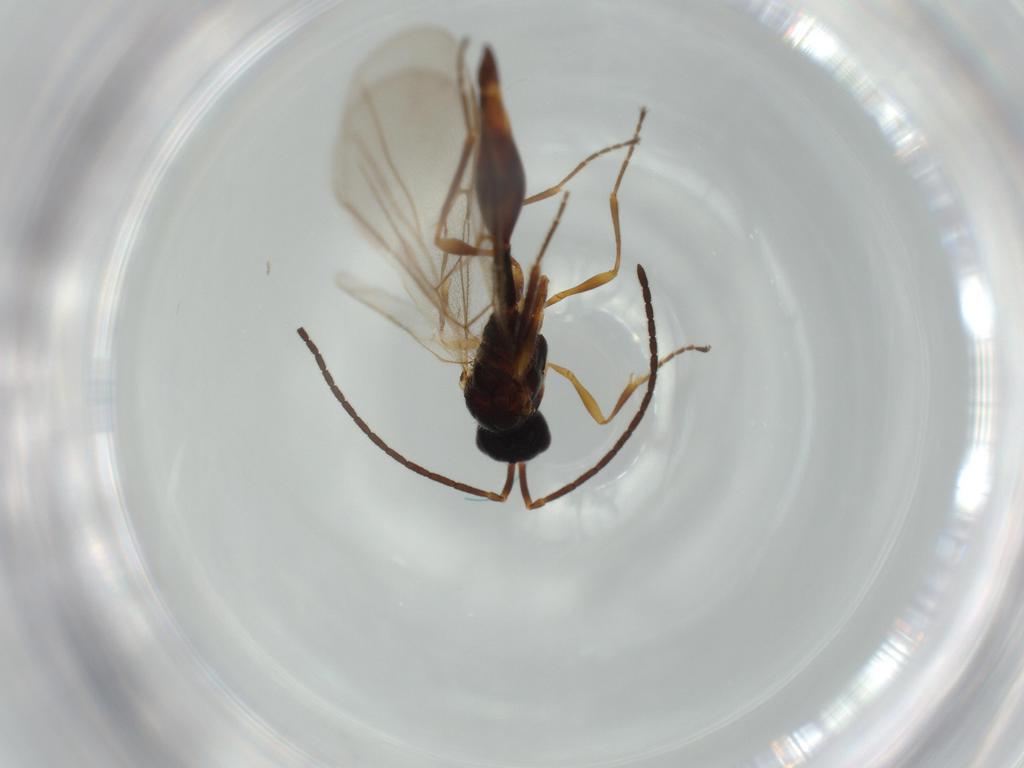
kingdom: Animalia
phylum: Arthropoda
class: Insecta
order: Hymenoptera
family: Diapriidae
